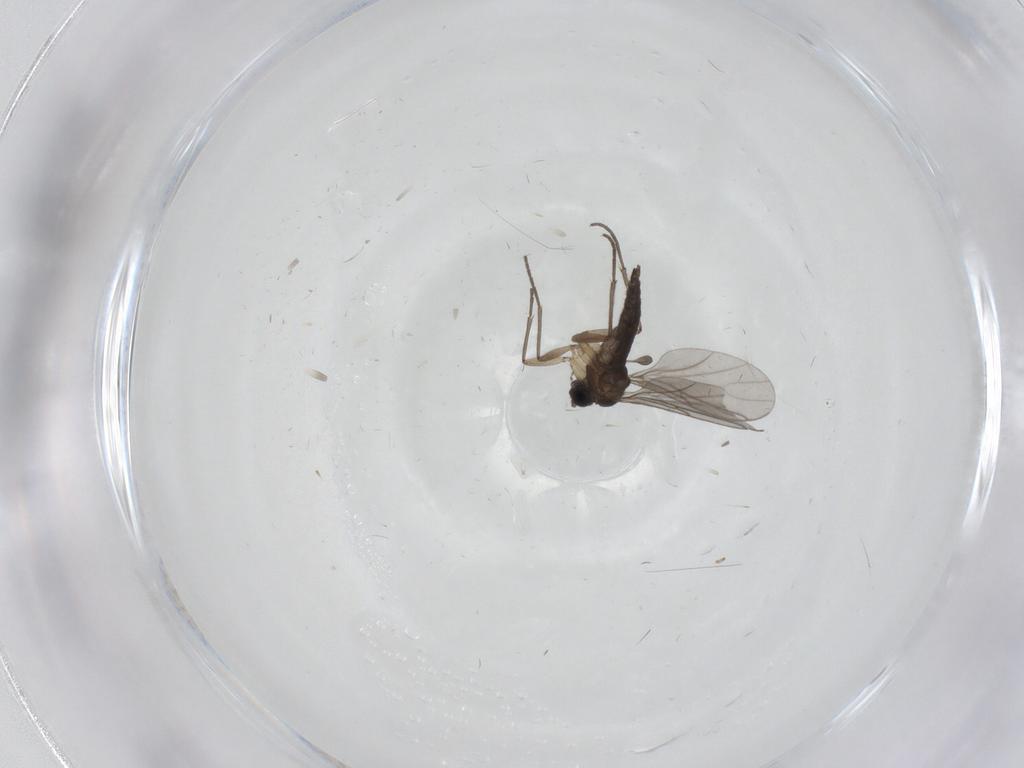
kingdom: Animalia
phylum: Arthropoda
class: Insecta
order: Diptera
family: Sciaridae
